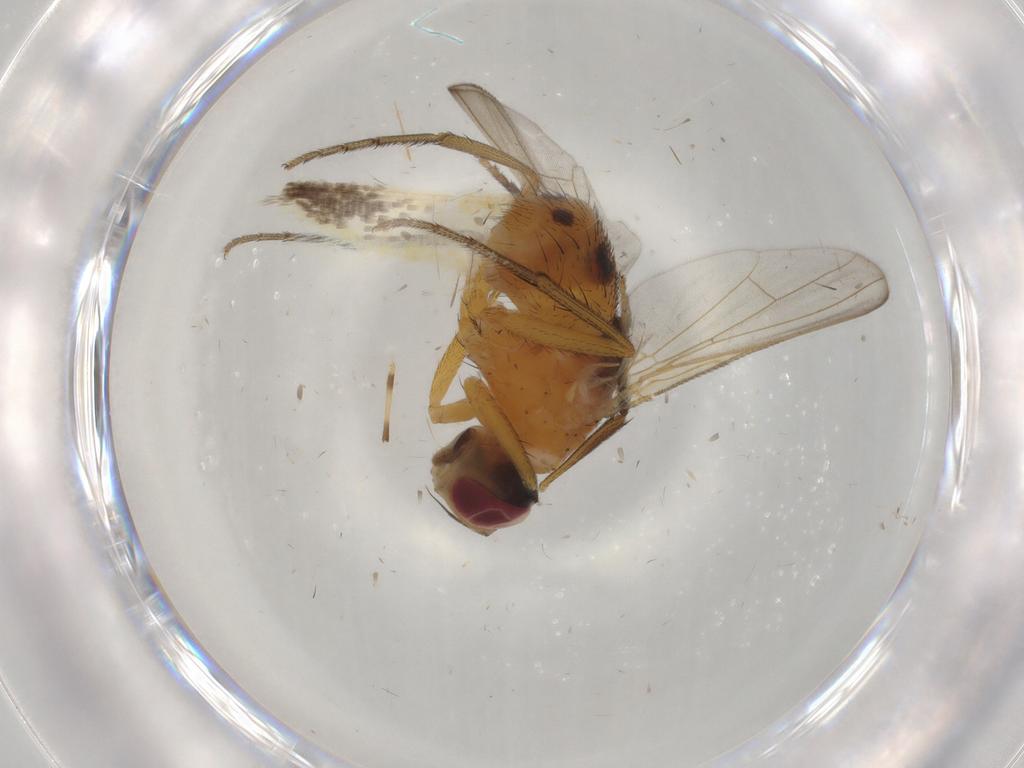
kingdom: Animalia
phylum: Arthropoda
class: Insecta
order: Diptera
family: Muscidae
